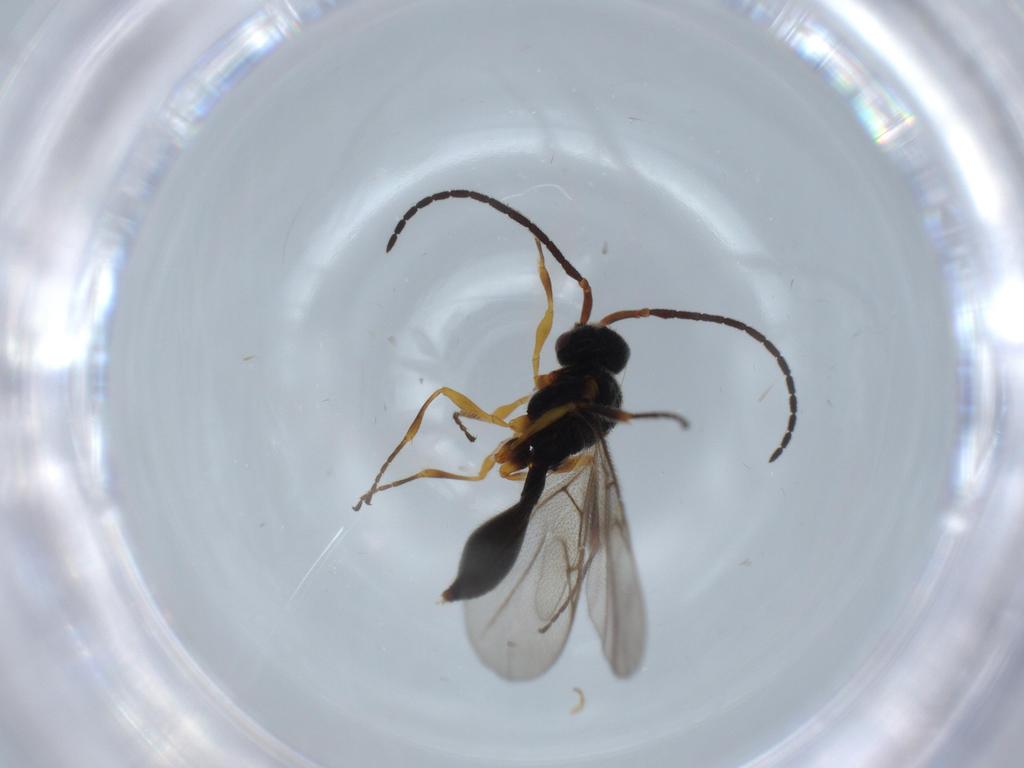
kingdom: Animalia
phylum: Arthropoda
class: Insecta
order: Hymenoptera
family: Braconidae
